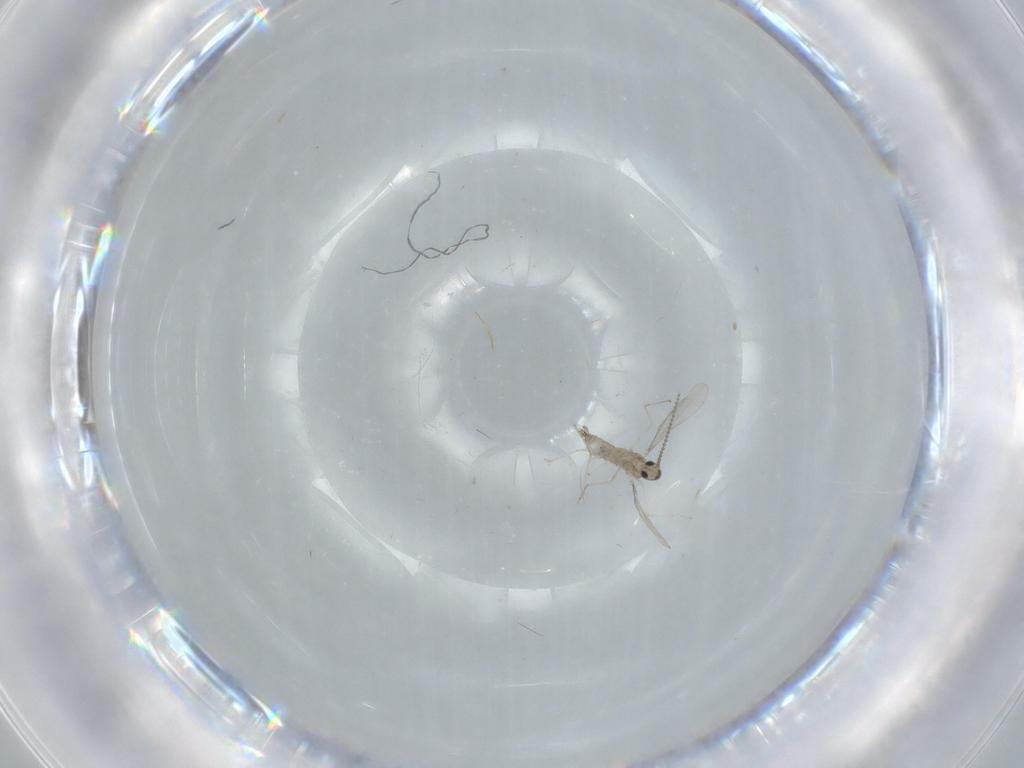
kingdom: Animalia
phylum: Arthropoda
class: Insecta
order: Diptera
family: Cecidomyiidae
